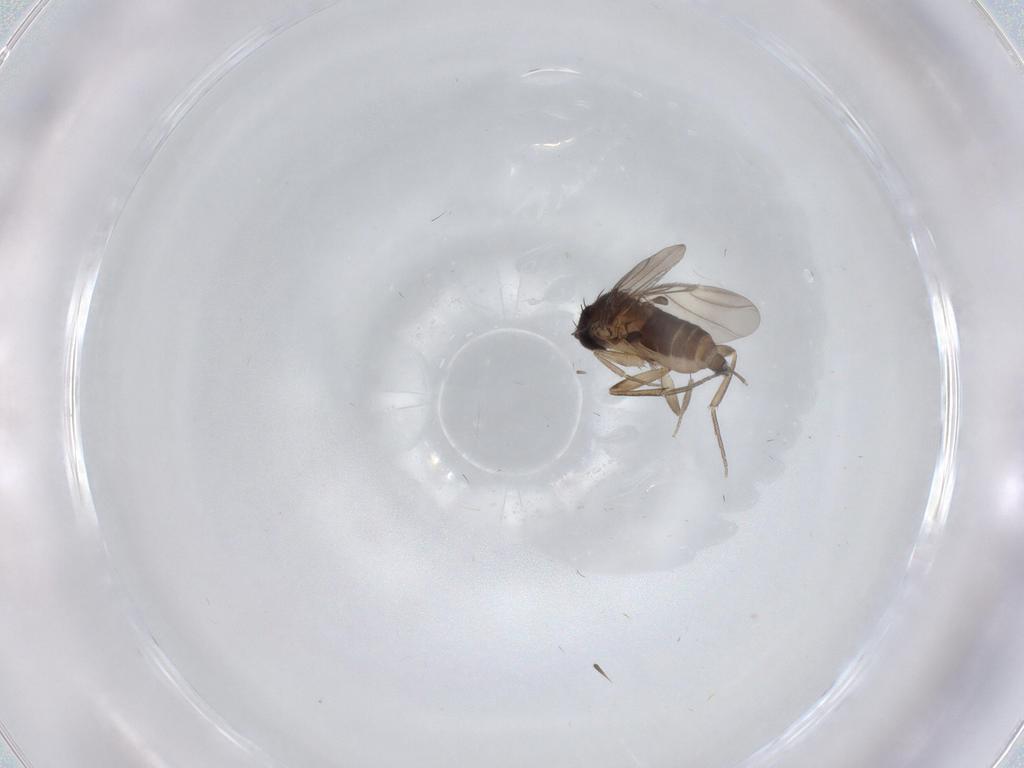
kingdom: Animalia
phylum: Arthropoda
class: Insecta
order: Diptera
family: Phoridae
